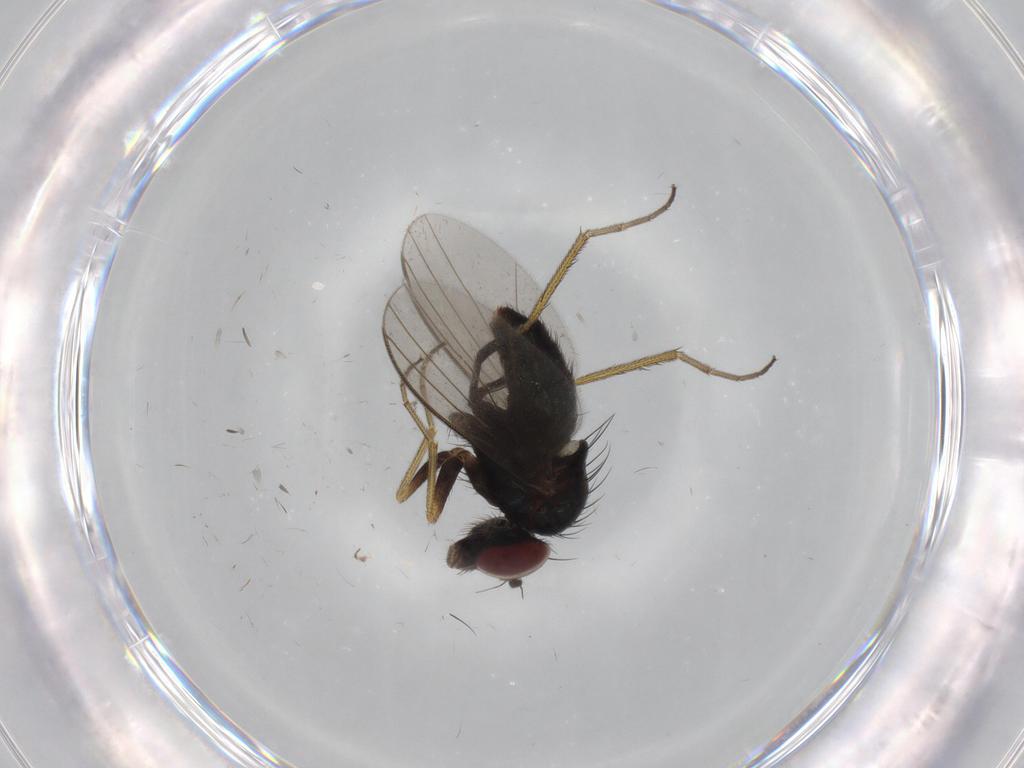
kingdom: Animalia
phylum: Arthropoda
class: Insecta
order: Diptera
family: Dolichopodidae
